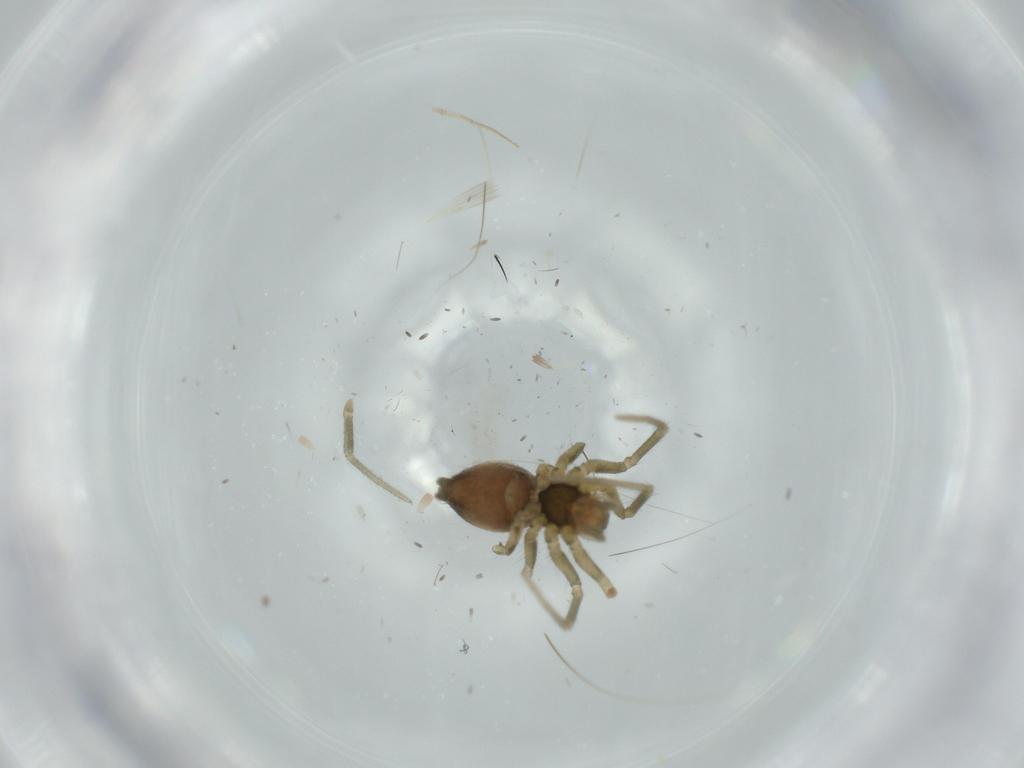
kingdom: Animalia
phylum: Arthropoda
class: Arachnida
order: Araneae
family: Linyphiidae
